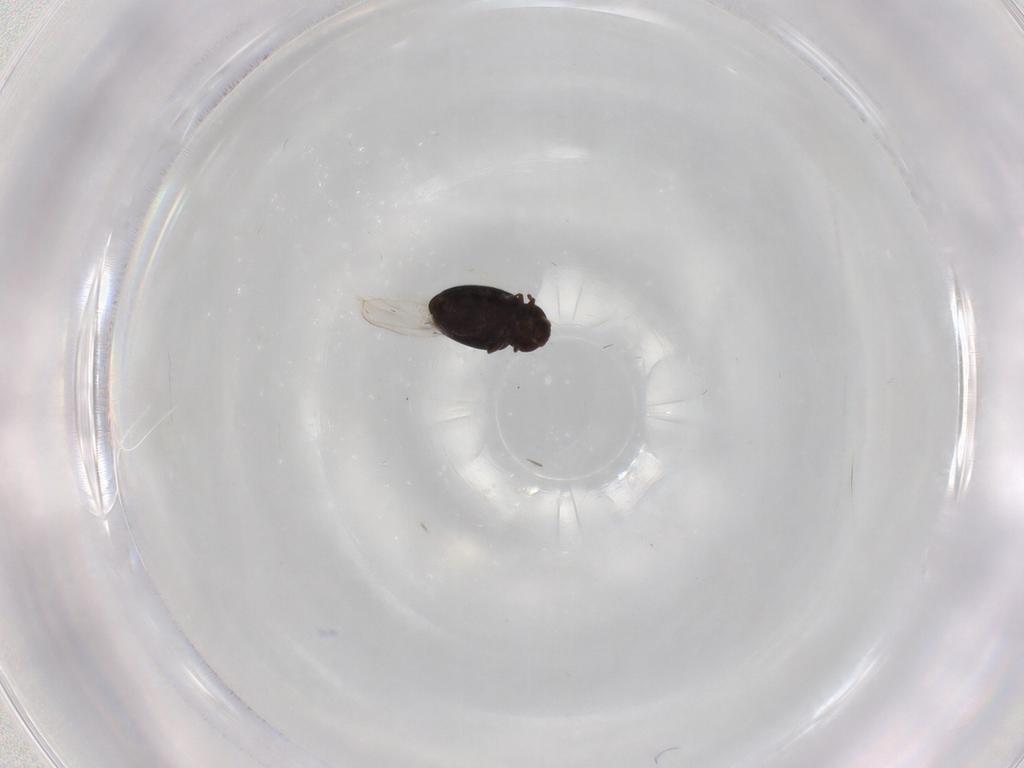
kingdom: Animalia
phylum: Arthropoda
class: Insecta
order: Coleoptera
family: Corylophidae
